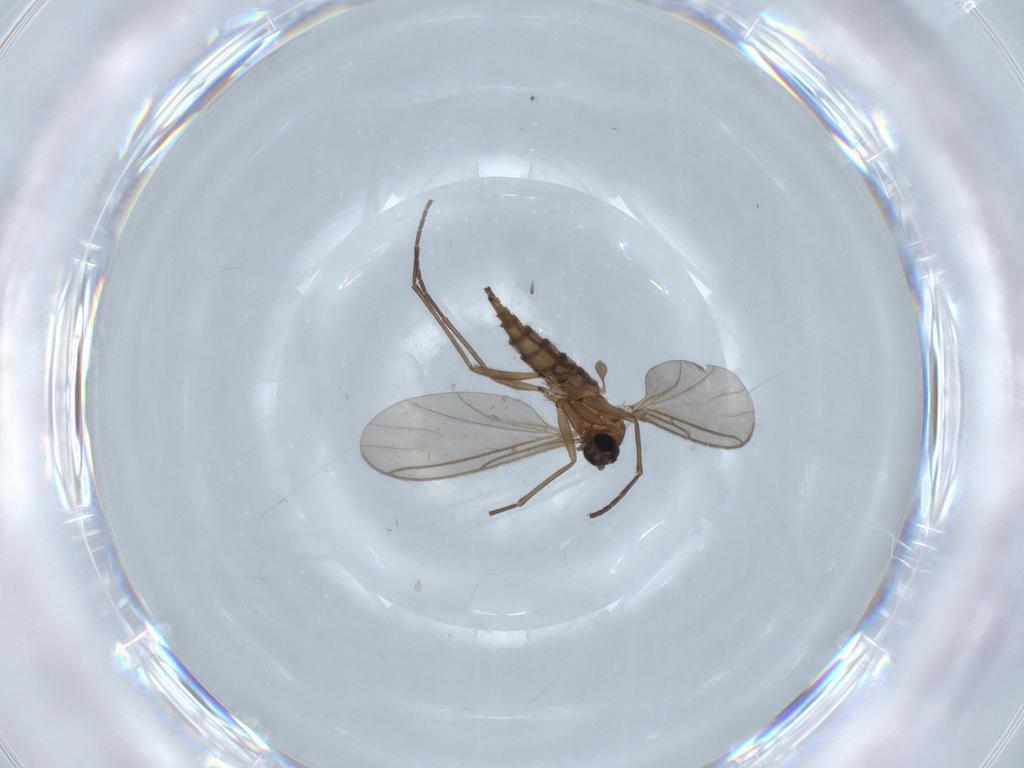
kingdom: Animalia
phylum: Arthropoda
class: Insecta
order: Diptera
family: Sciaridae
